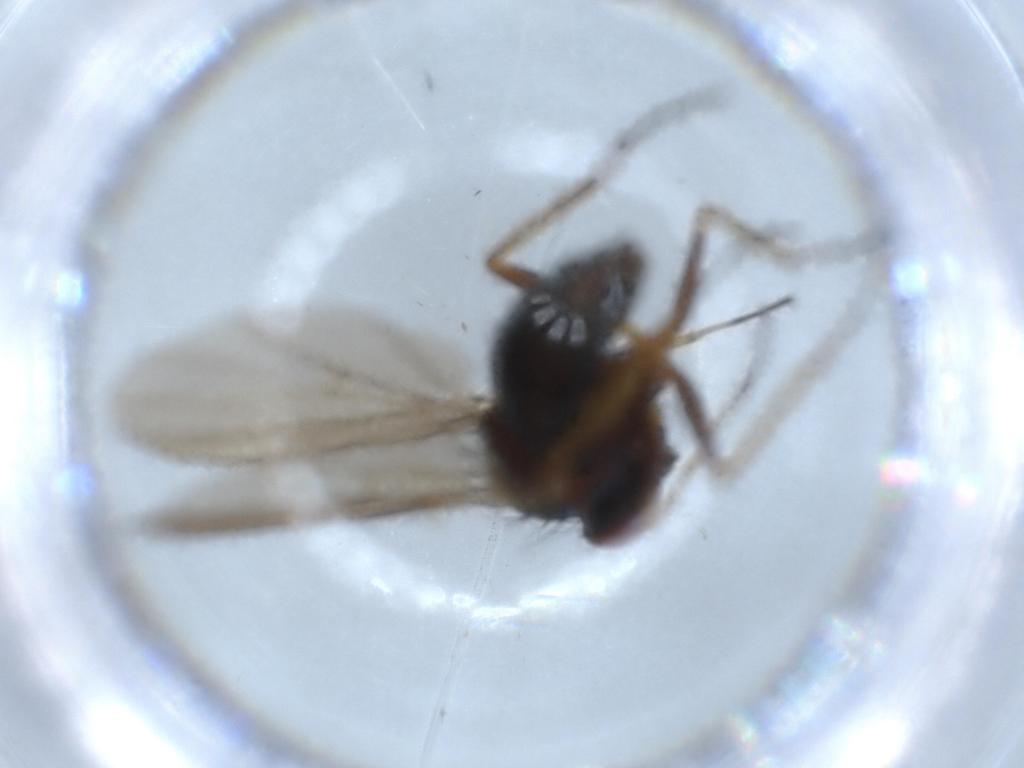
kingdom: Animalia
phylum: Arthropoda
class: Insecta
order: Diptera
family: Dolichopodidae
